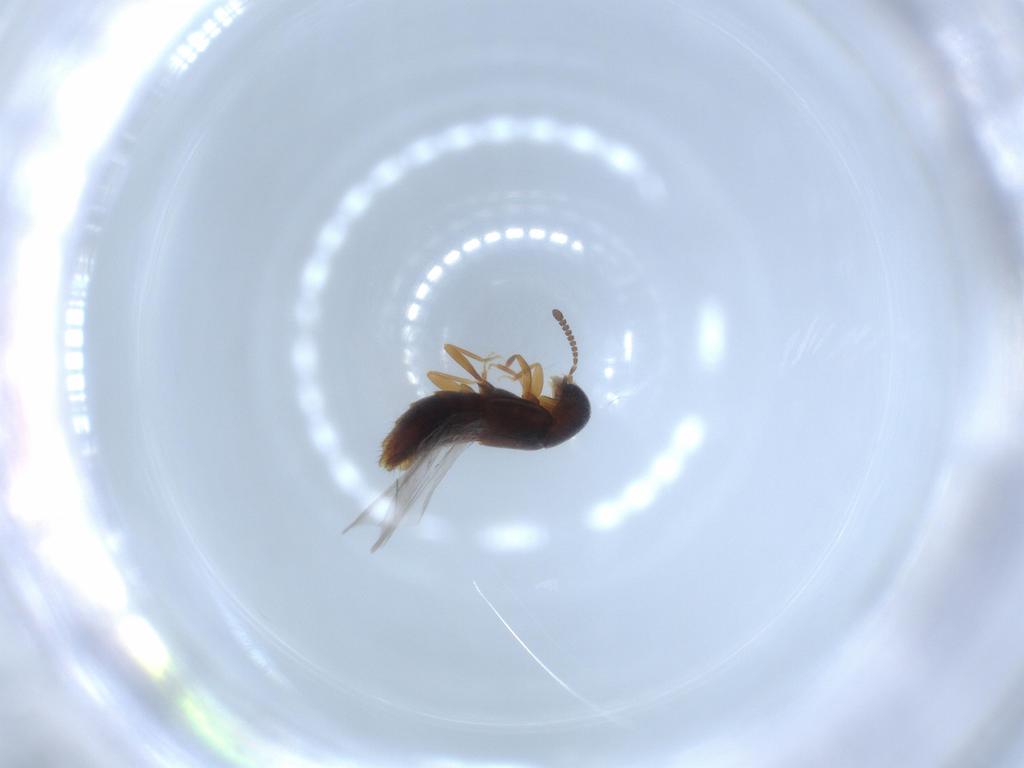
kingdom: Animalia
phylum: Arthropoda
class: Insecta
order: Coleoptera
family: Staphylinidae
